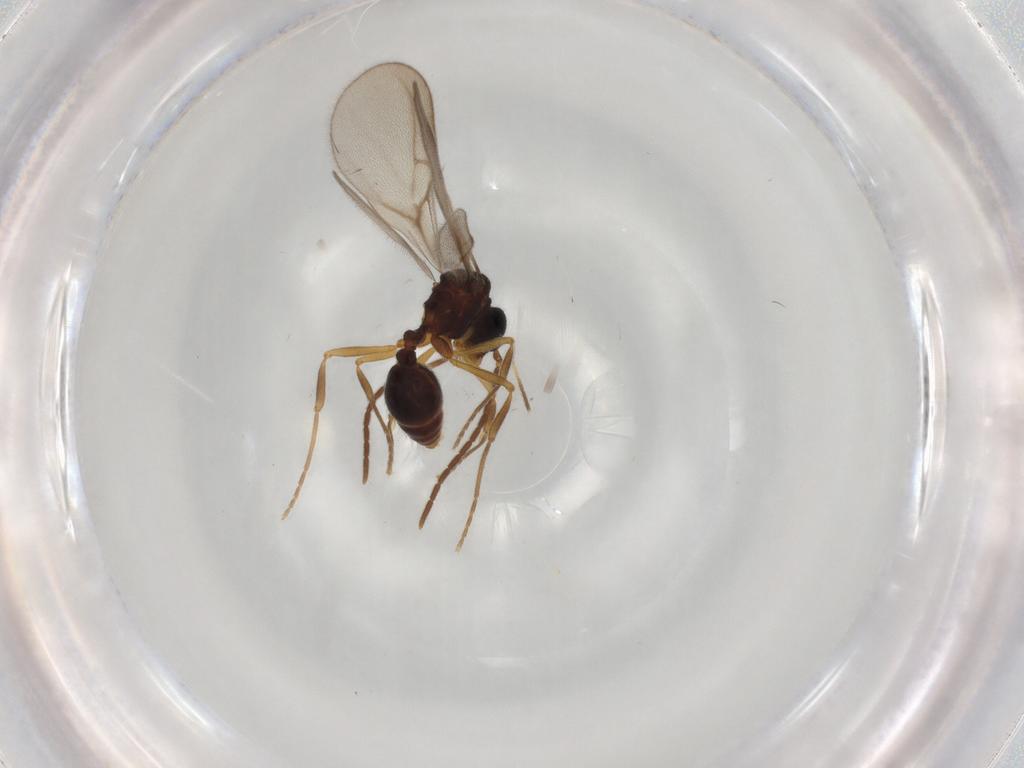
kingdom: Animalia
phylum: Arthropoda
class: Insecta
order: Hymenoptera
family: Formicidae
